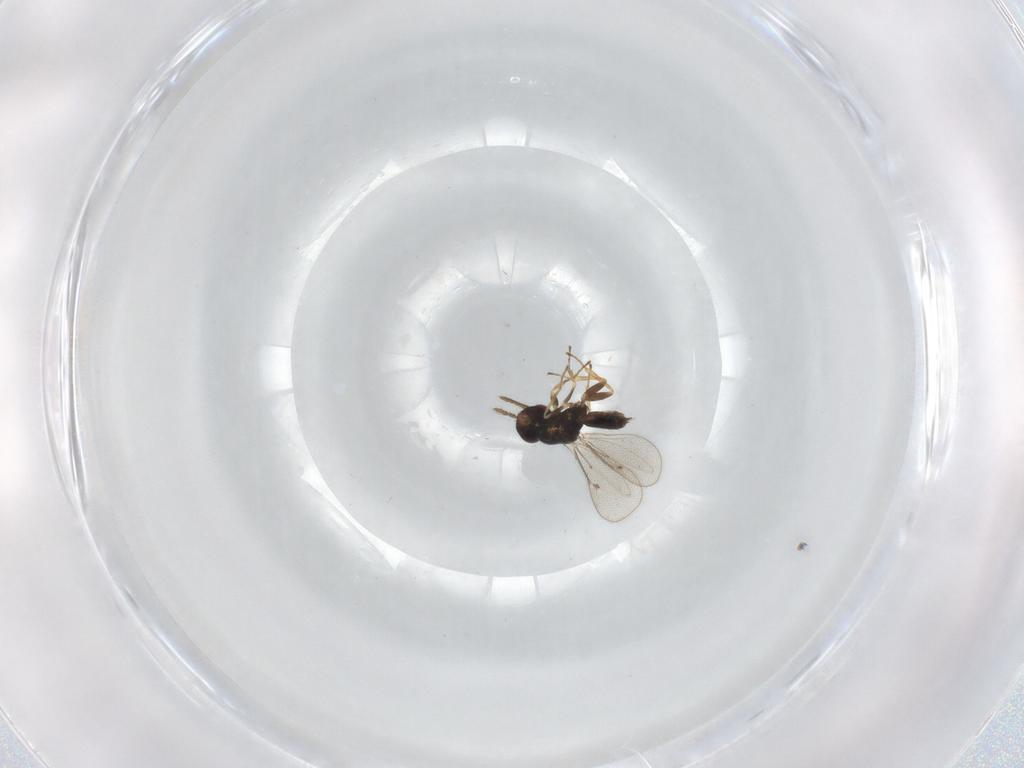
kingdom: Animalia
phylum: Arthropoda
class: Insecta
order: Hymenoptera
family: Eulophidae
